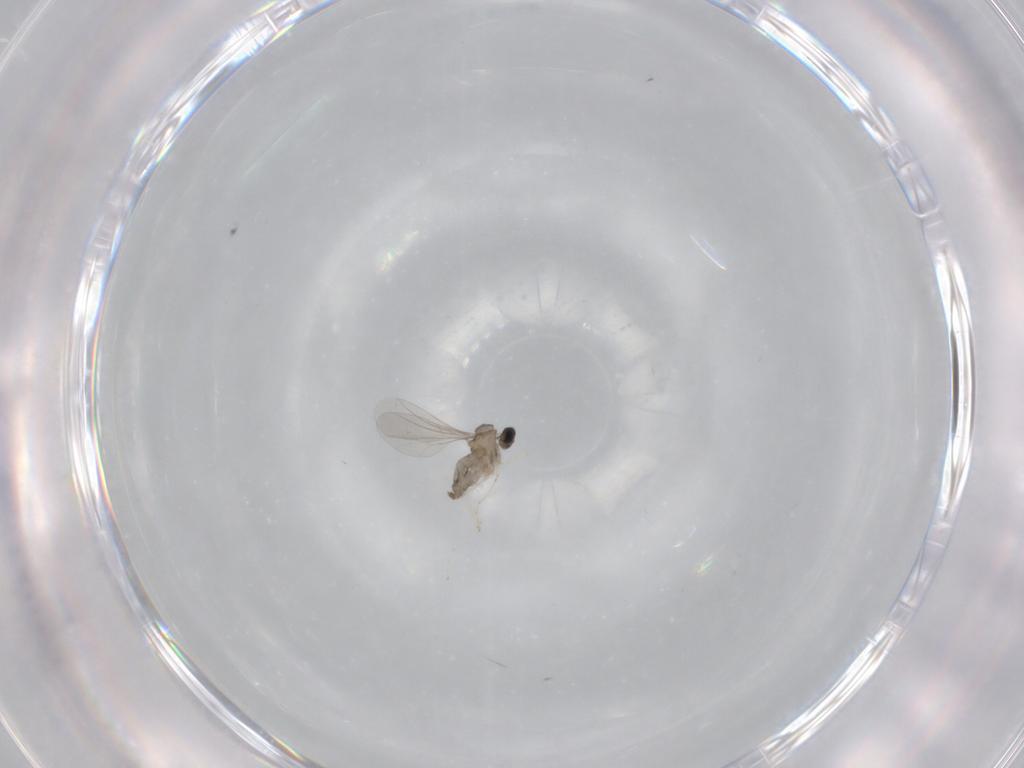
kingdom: Animalia
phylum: Arthropoda
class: Insecta
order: Diptera
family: Cecidomyiidae
